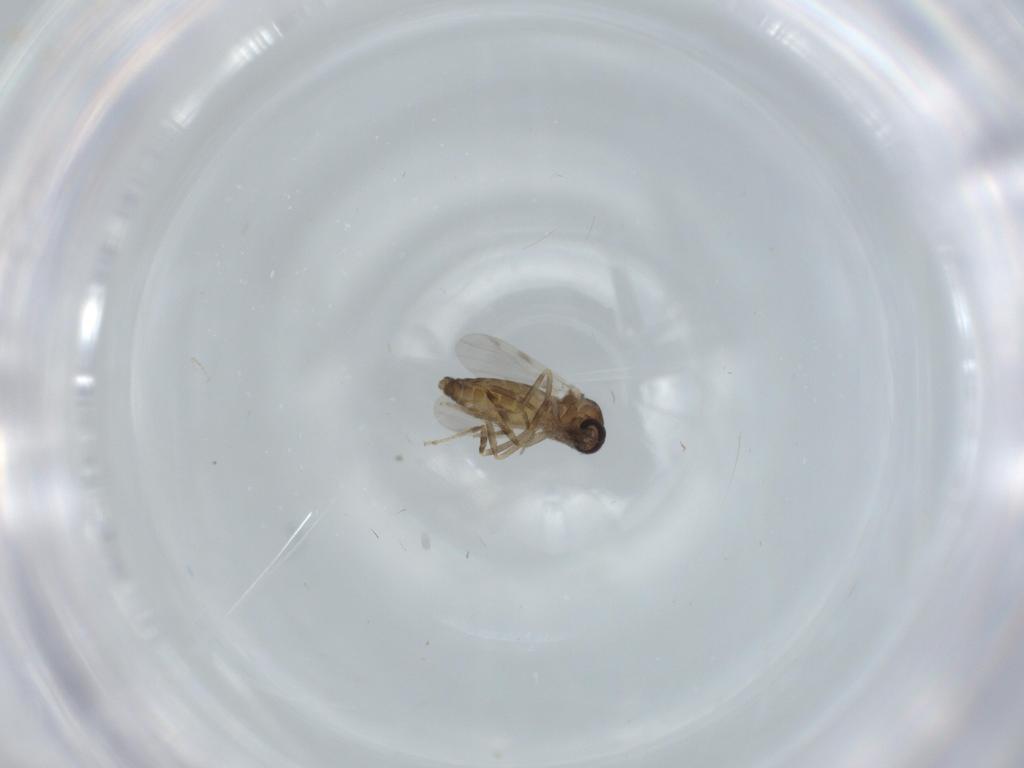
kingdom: Animalia
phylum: Arthropoda
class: Insecta
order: Diptera
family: Ceratopogonidae
